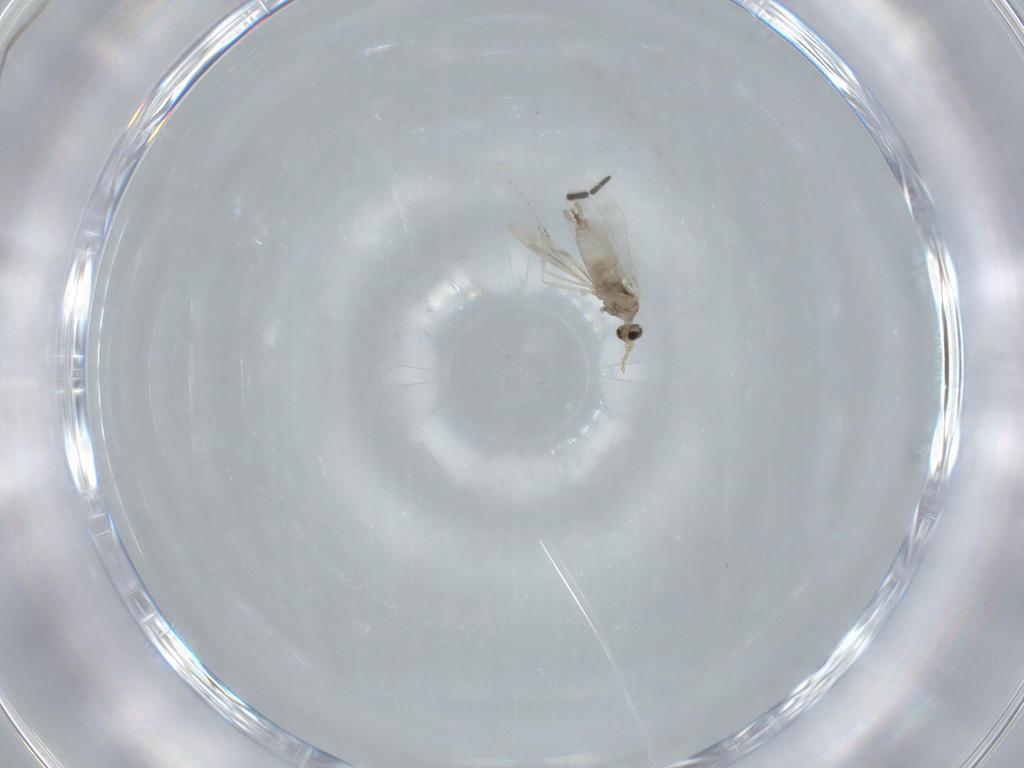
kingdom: Animalia
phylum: Arthropoda
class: Insecta
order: Diptera
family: Cecidomyiidae
